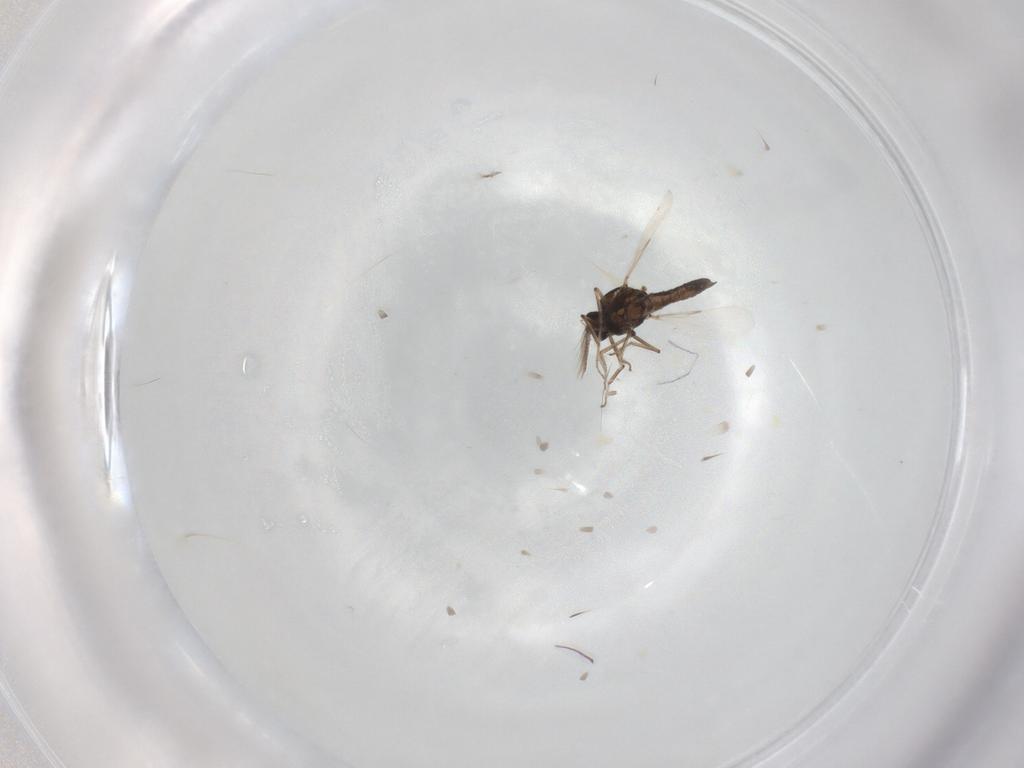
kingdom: Animalia
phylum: Arthropoda
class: Insecta
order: Diptera
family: Ceratopogonidae
